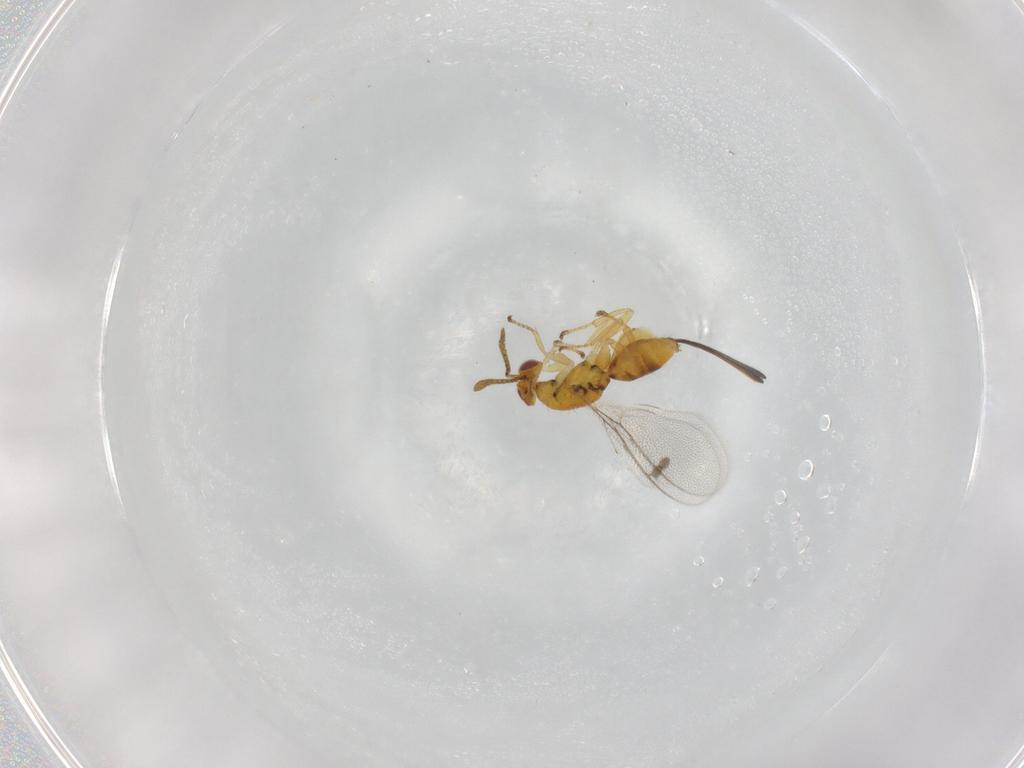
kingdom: Animalia
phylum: Arthropoda
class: Insecta
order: Hymenoptera
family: Megastigmidae
